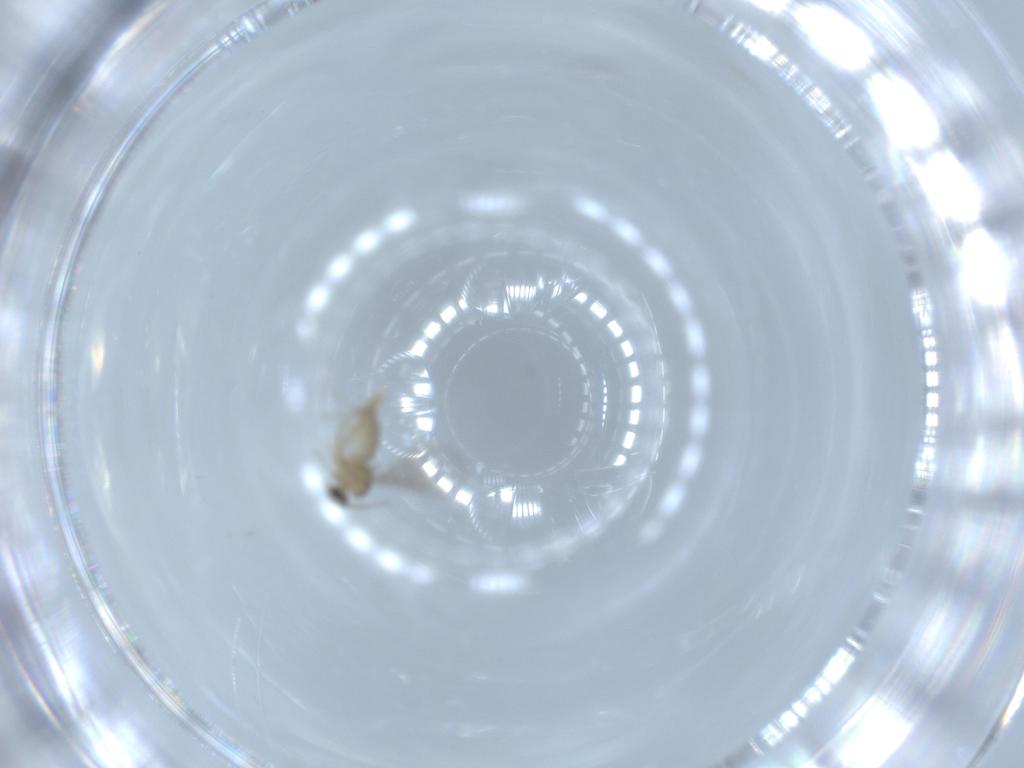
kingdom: Animalia
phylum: Arthropoda
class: Insecta
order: Diptera
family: Cecidomyiidae
